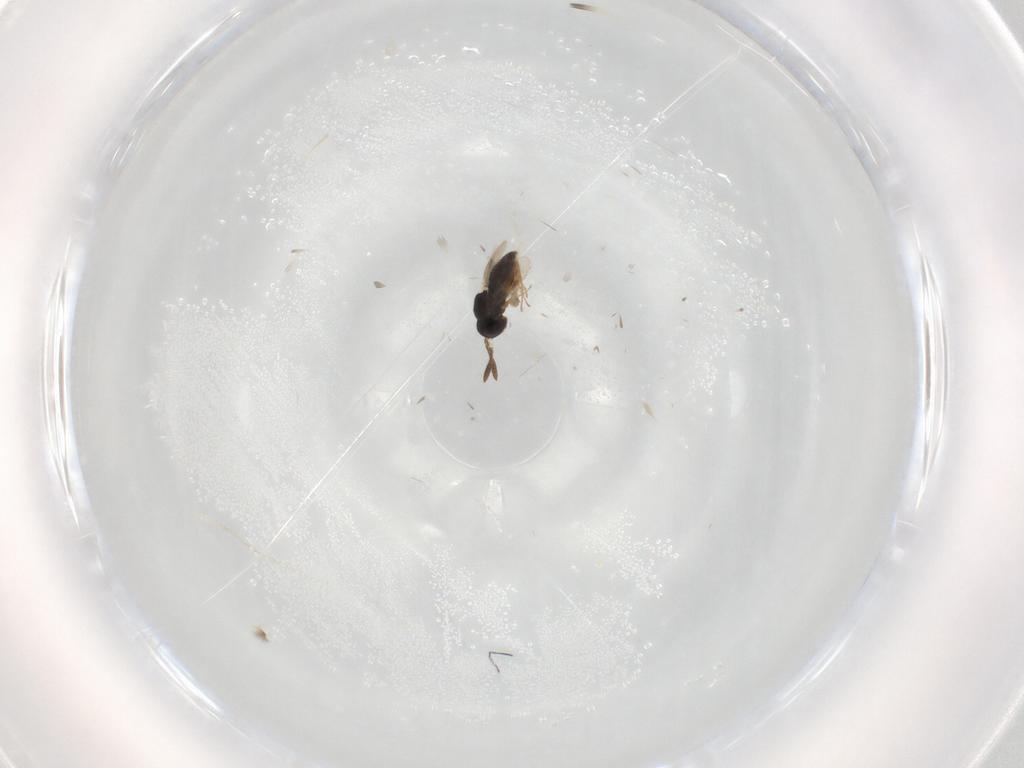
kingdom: Animalia
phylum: Arthropoda
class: Insecta
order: Hymenoptera
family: Scelionidae
